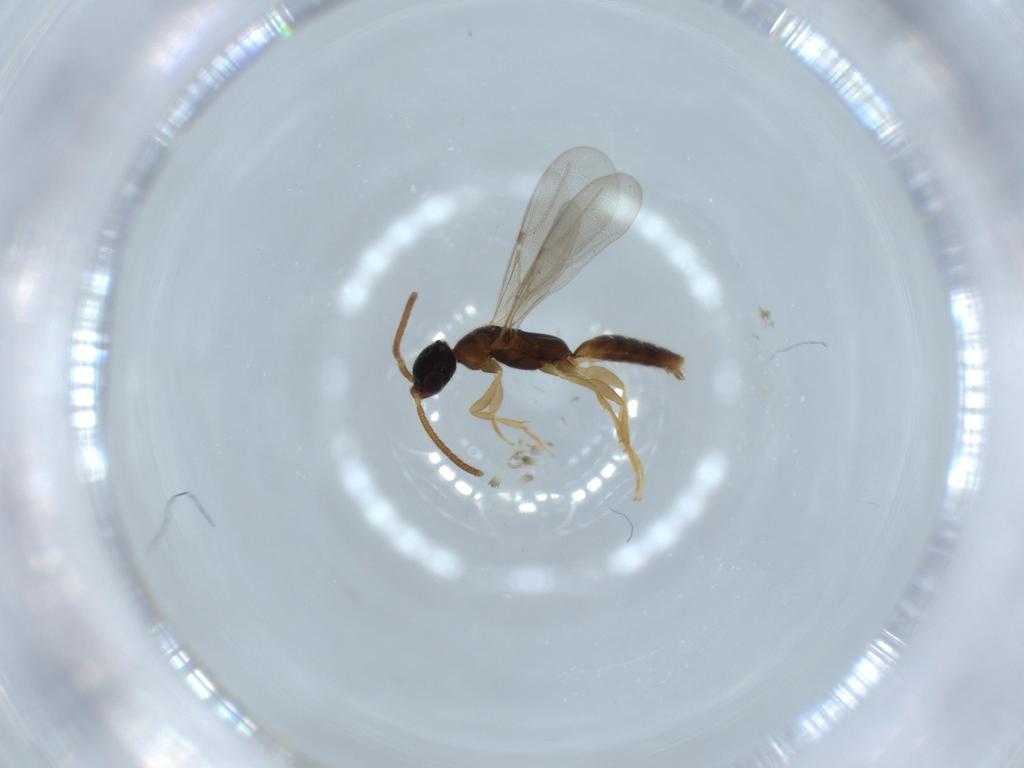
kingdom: Animalia
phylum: Arthropoda
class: Insecta
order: Hymenoptera
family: Bethylidae
